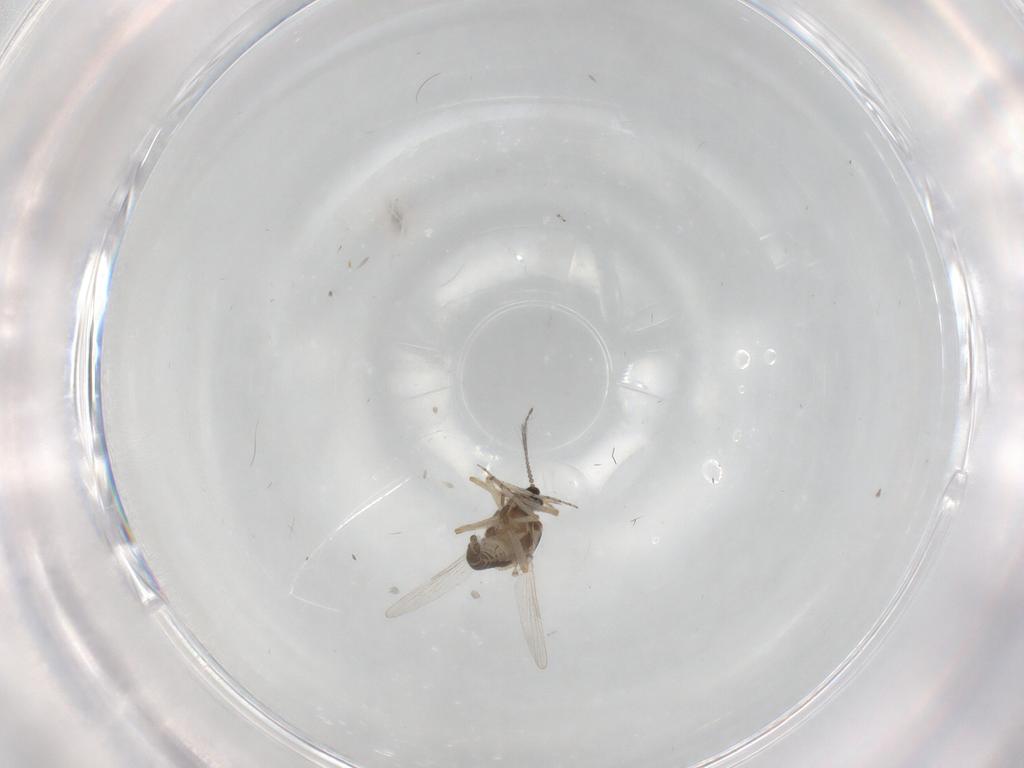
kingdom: Animalia
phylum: Arthropoda
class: Insecta
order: Diptera
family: Ceratopogonidae
